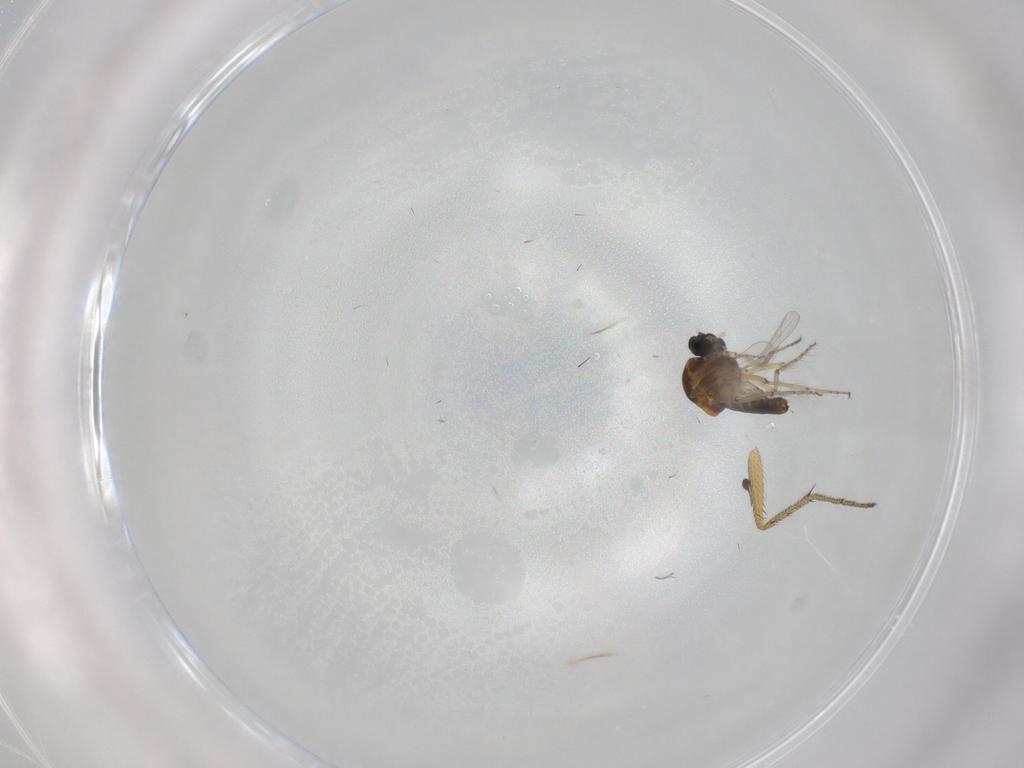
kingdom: Animalia
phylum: Arthropoda
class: Insecta
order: Diptera
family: Ceratopogonidae
